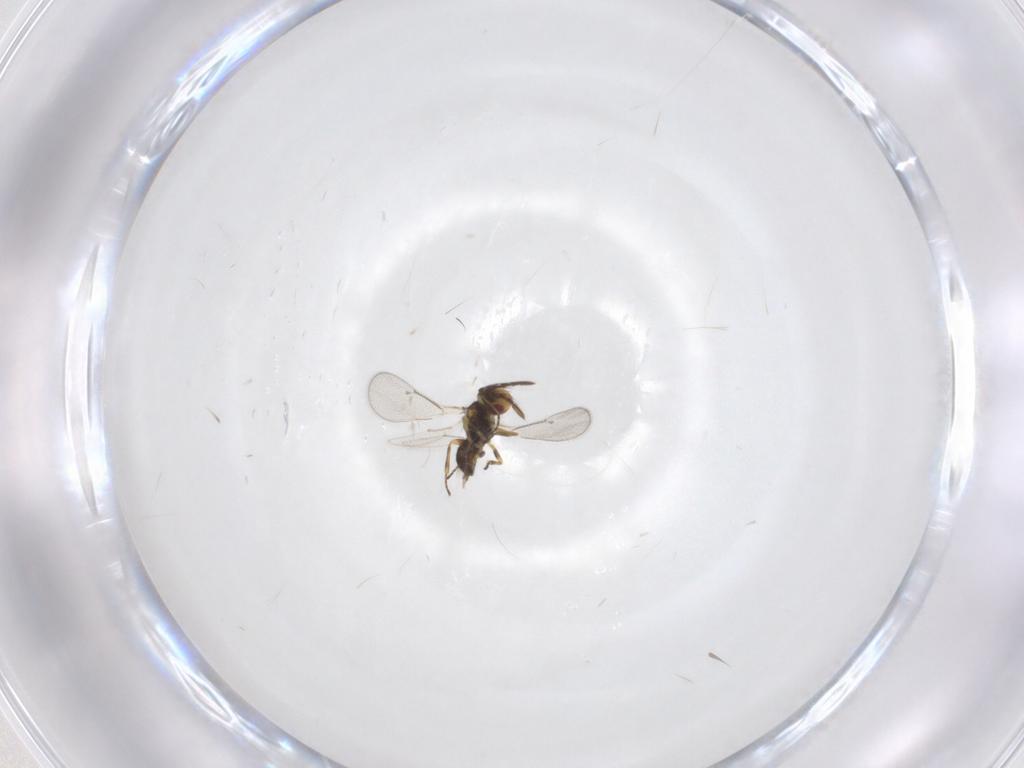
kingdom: Animalia
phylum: Arthropoda
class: Insecta
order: Hymenoptera
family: Eulophidae
